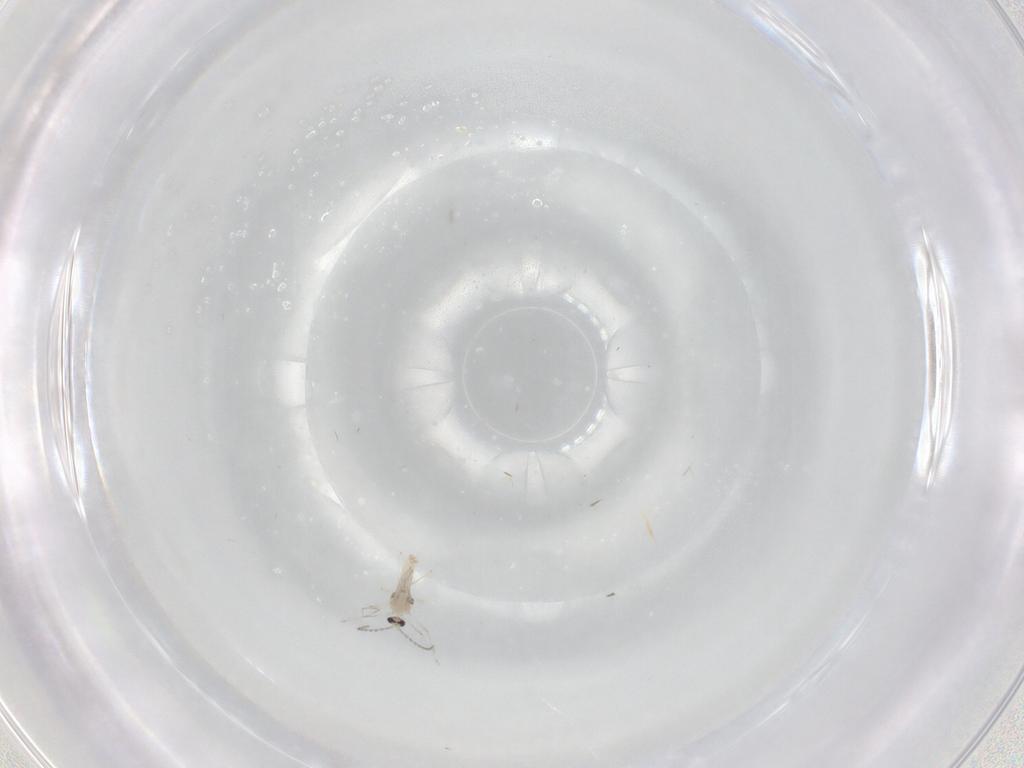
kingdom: Animalia
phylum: Arthropoda
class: Insecta
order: Diptera
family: Cecidomyiidae
